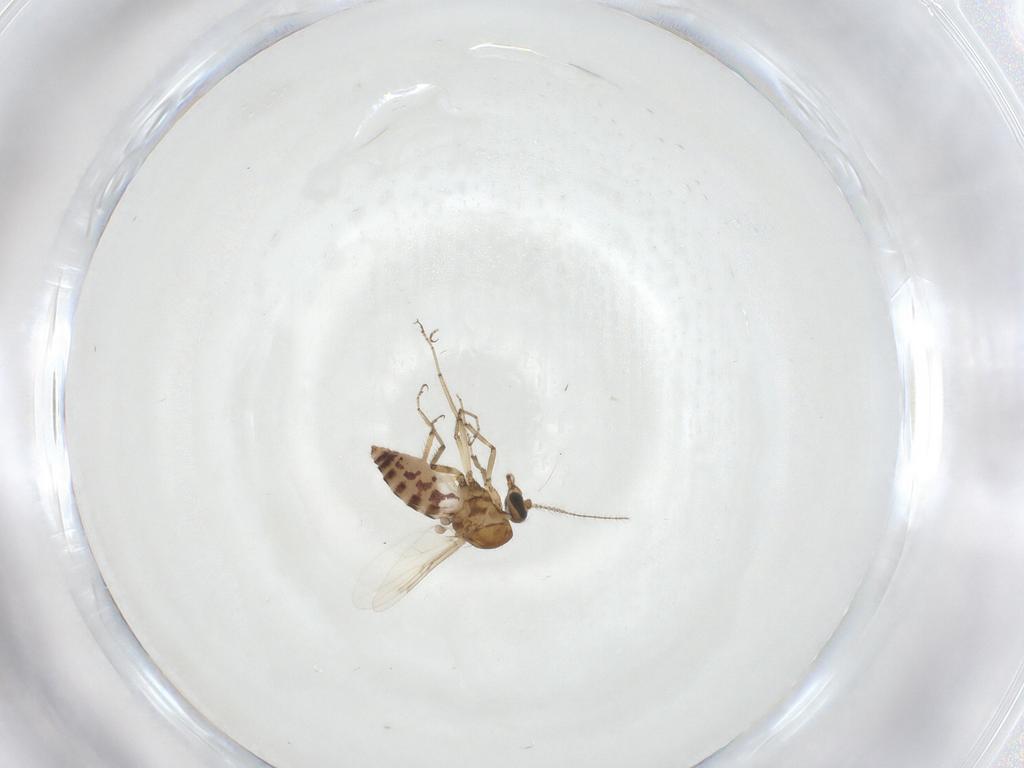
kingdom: Animalia
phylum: Arthropoda
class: Insecta
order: Diptera
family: Ceratopogonidae
